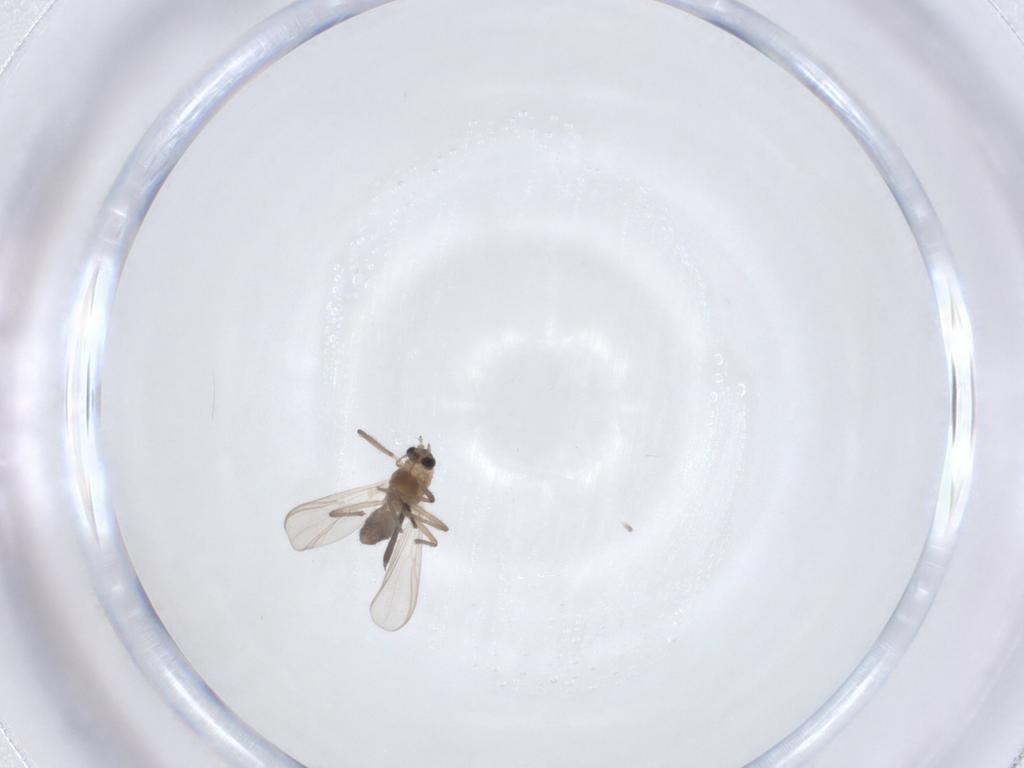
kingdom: Animalia
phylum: Arthropoda
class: Insecta
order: Diptera
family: Chironomidae
